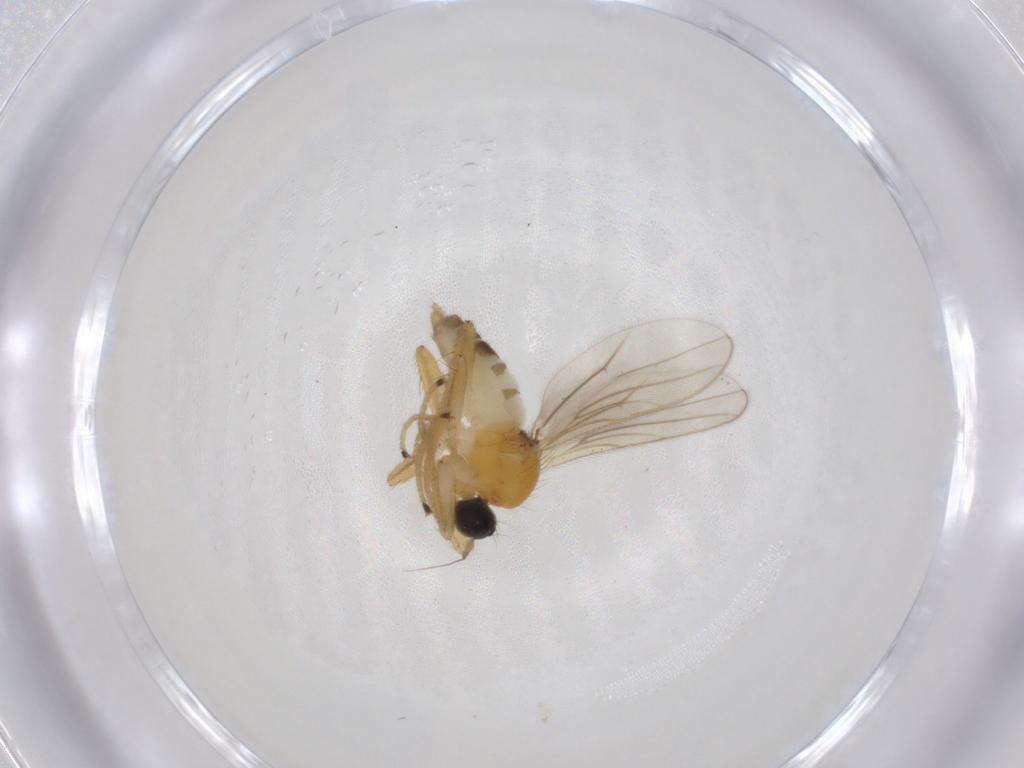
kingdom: Animalia
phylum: Arthropoda
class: Insecta
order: Diptera
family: Hybotidae
